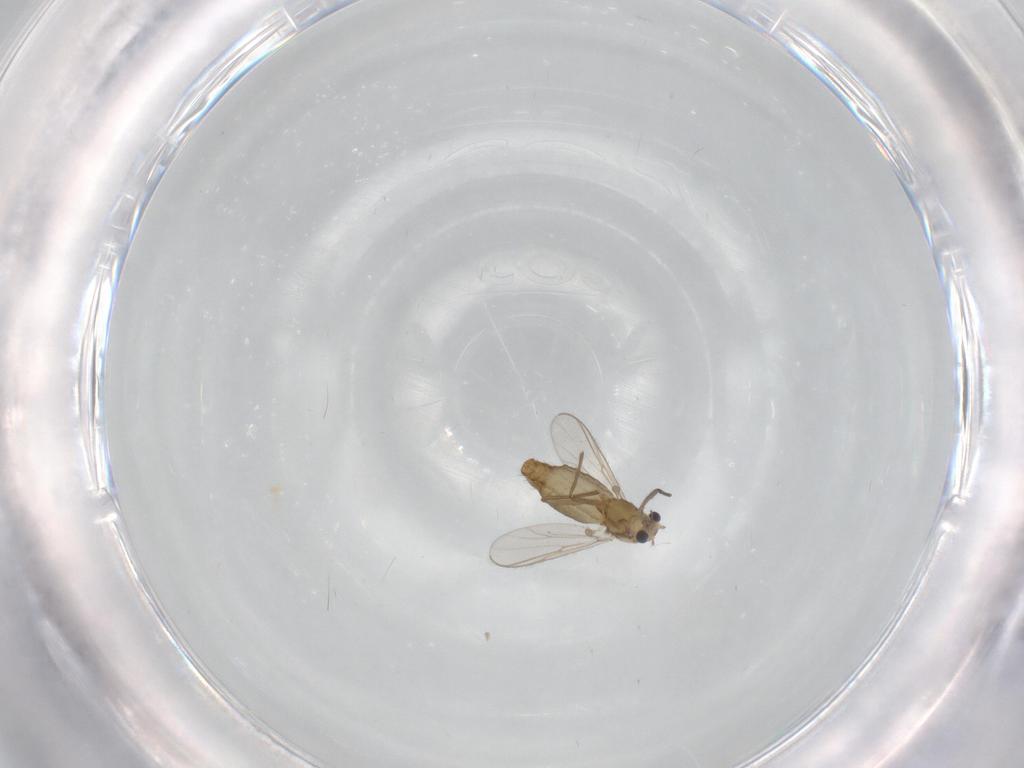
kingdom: Animalia
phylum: Arthropoda
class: Insecta
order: Diptera
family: Chironomidae
